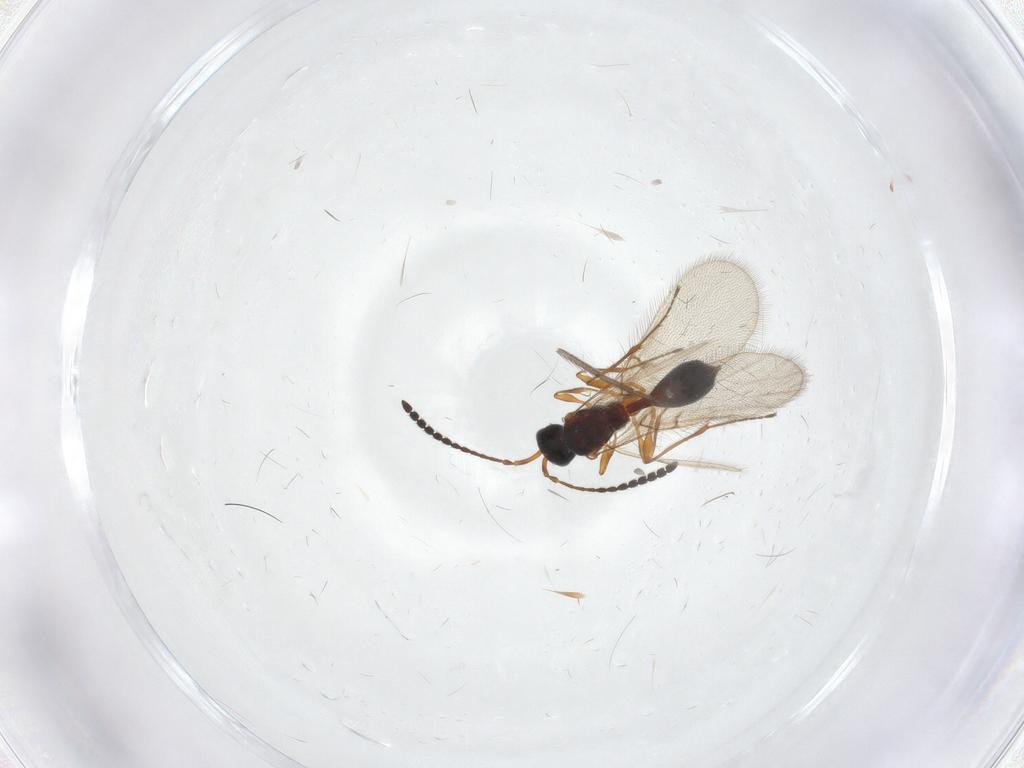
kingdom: Animalia
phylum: Arthropoda
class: Insecta
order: Hymenoptera
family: Diapriidae
